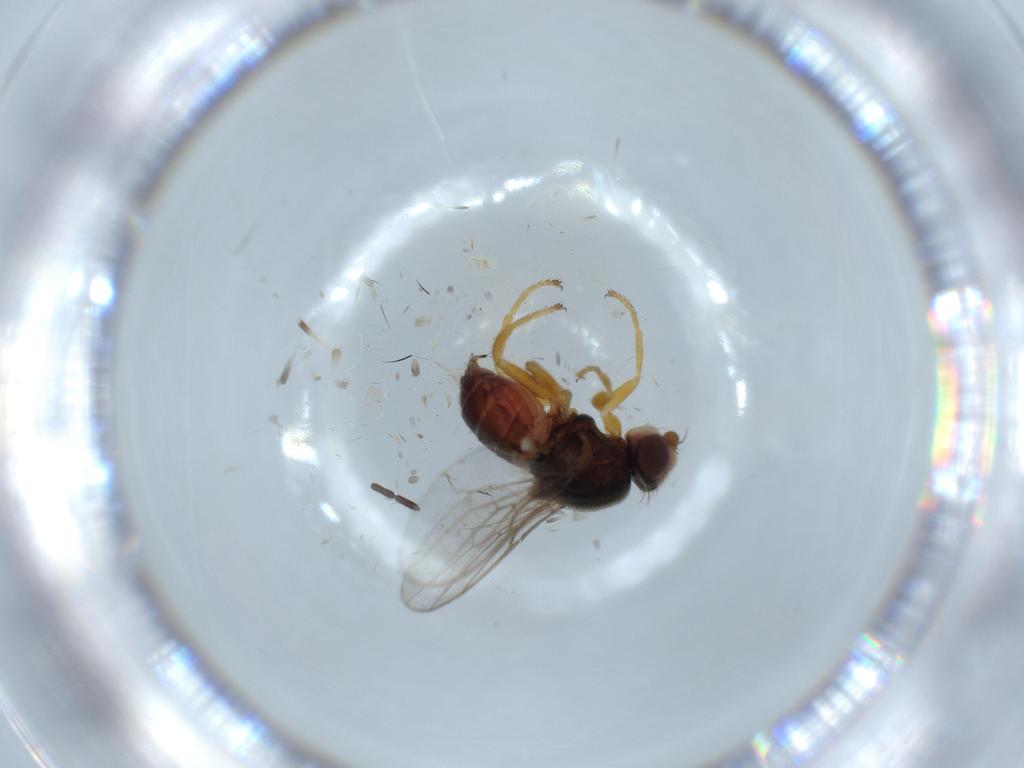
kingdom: Animalia
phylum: Arthropoda
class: Insecta
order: Diptera
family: Chloropidae
